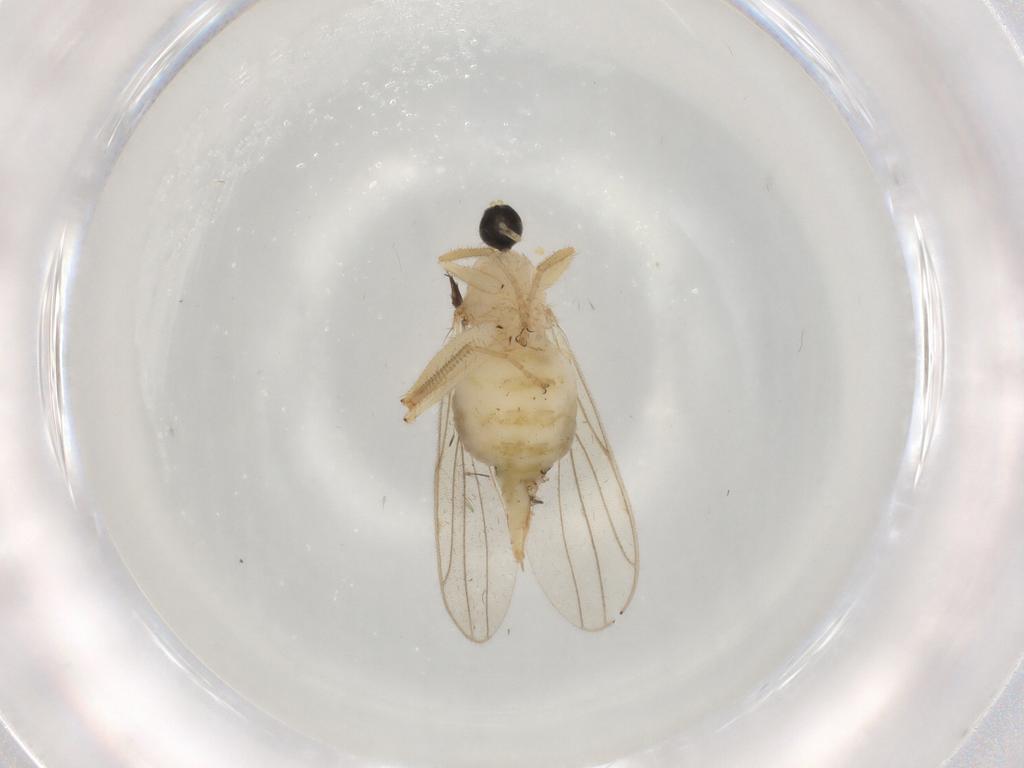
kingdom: Animalia
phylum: Arthropoda
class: Insecta
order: Diptera
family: Hybotidae
